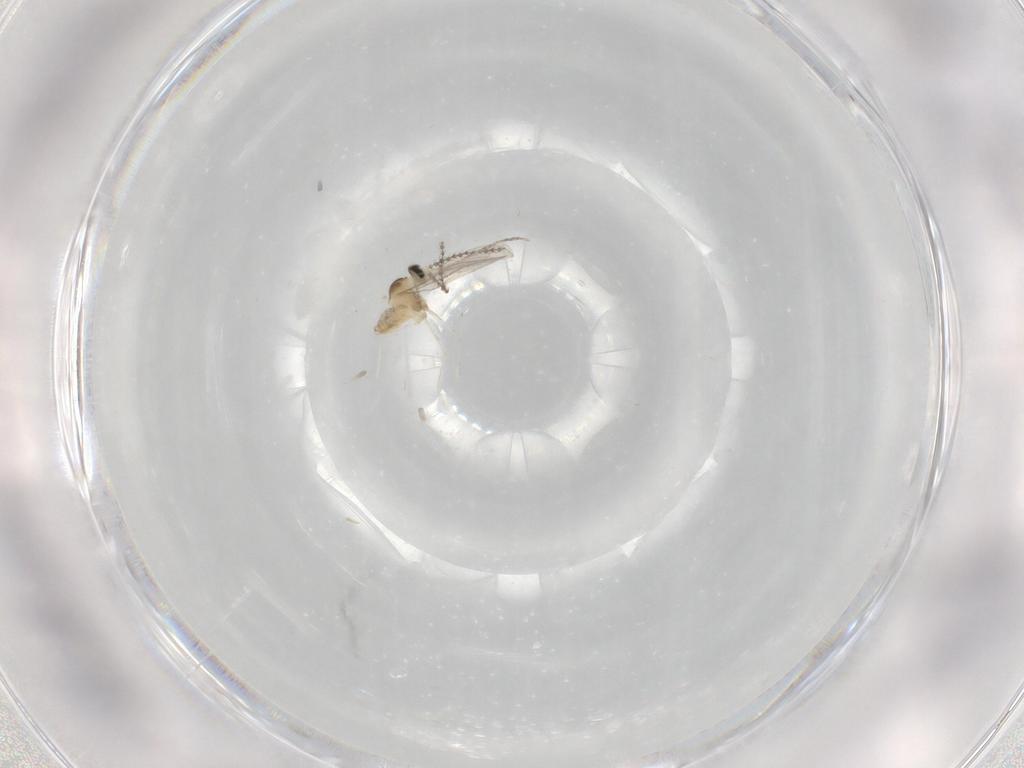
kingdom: Animalia
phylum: Arthropoda
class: Insecta
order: Diptera
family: Cecidomyiidae
